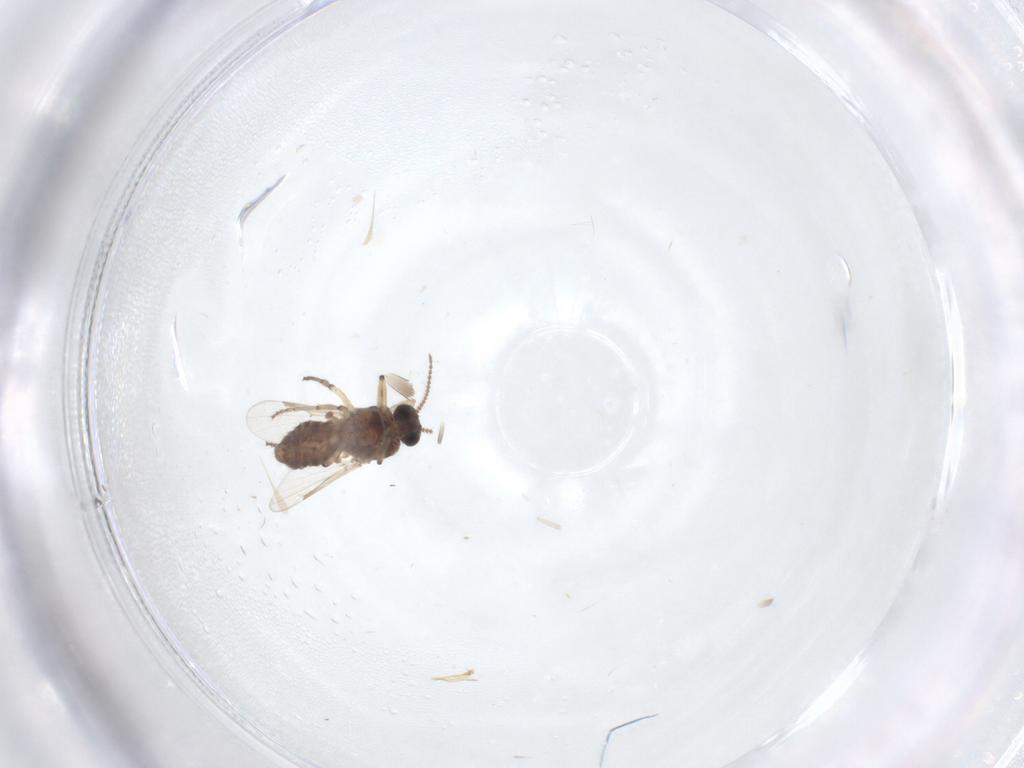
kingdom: Animalia
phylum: Arthropoda
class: Insecta
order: Diptera
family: Ceratopogonidae
